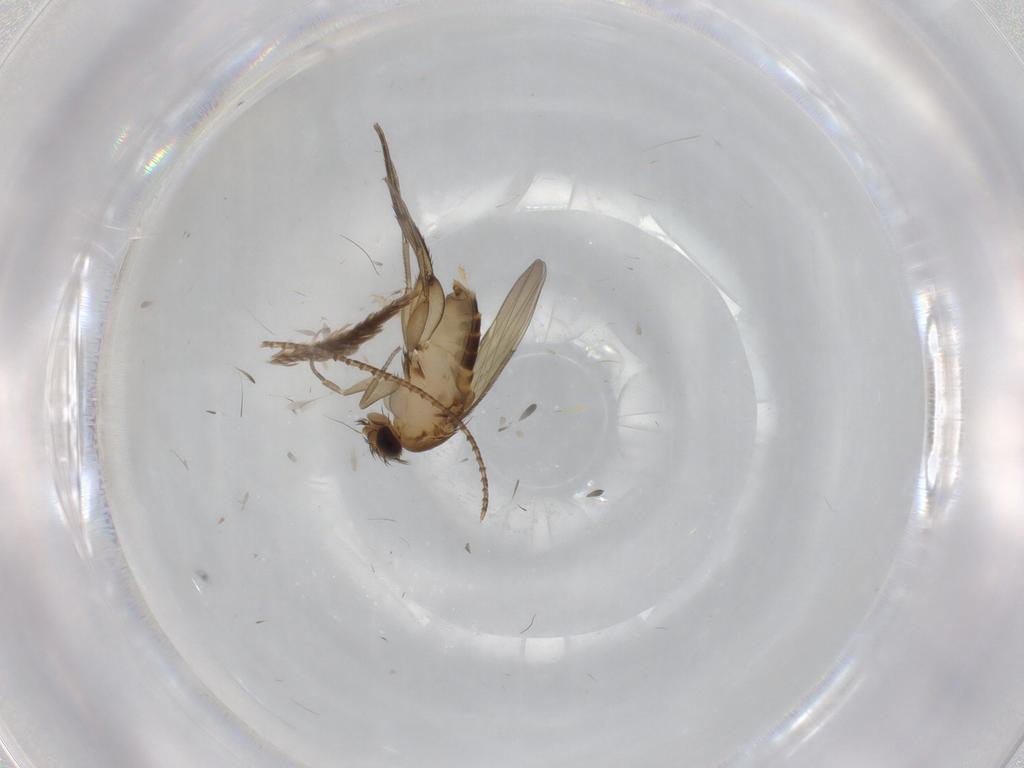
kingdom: Animalia
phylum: Arthropoda
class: Insecta
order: Diptera
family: Phoridae
